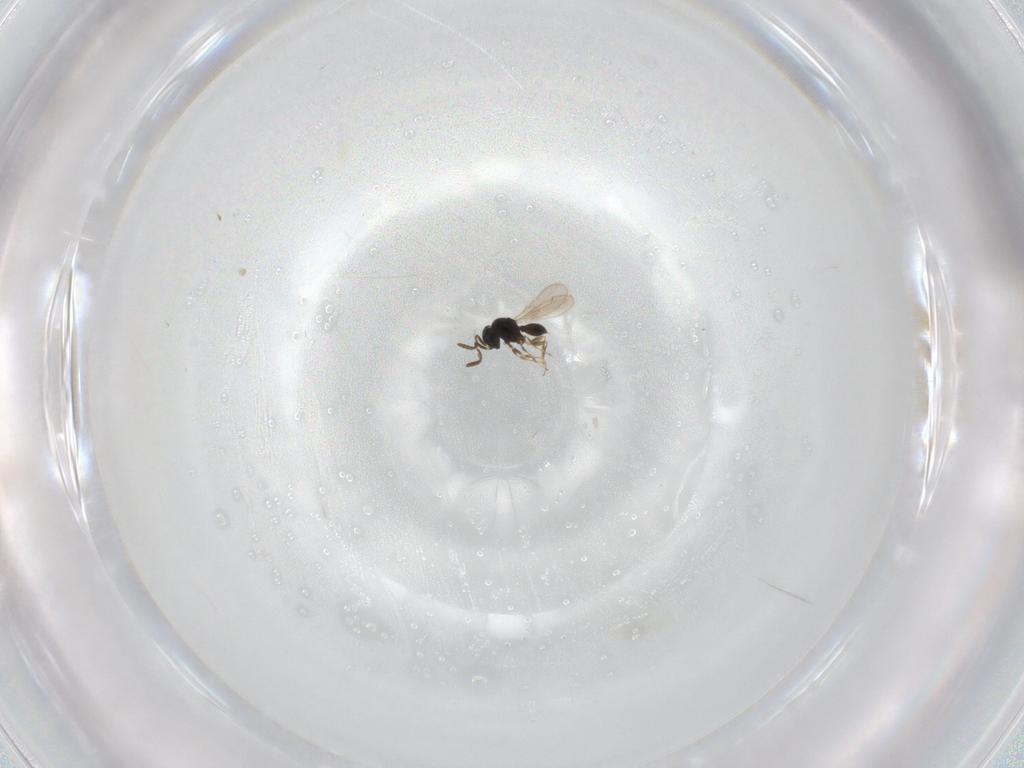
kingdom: Animalia
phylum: Arthropoda
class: Insecta
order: Hymenoptera
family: Scelionidae
